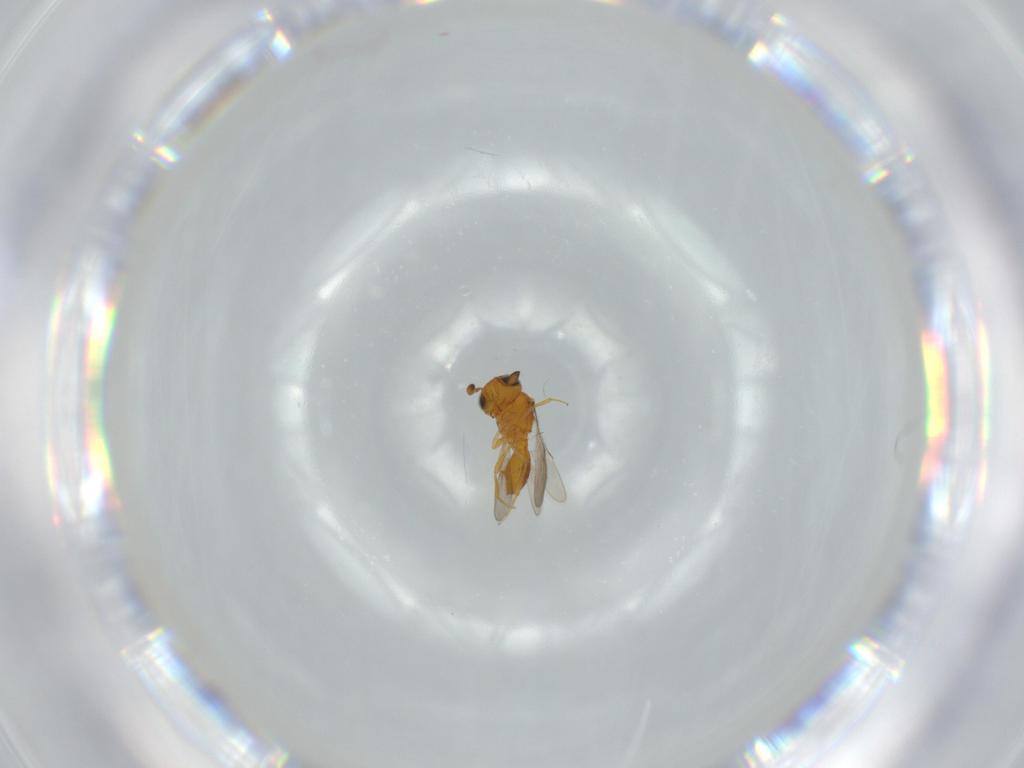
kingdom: Animalia
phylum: Arthropoda
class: Insecta
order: Hymenoptera
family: Scelionidae
